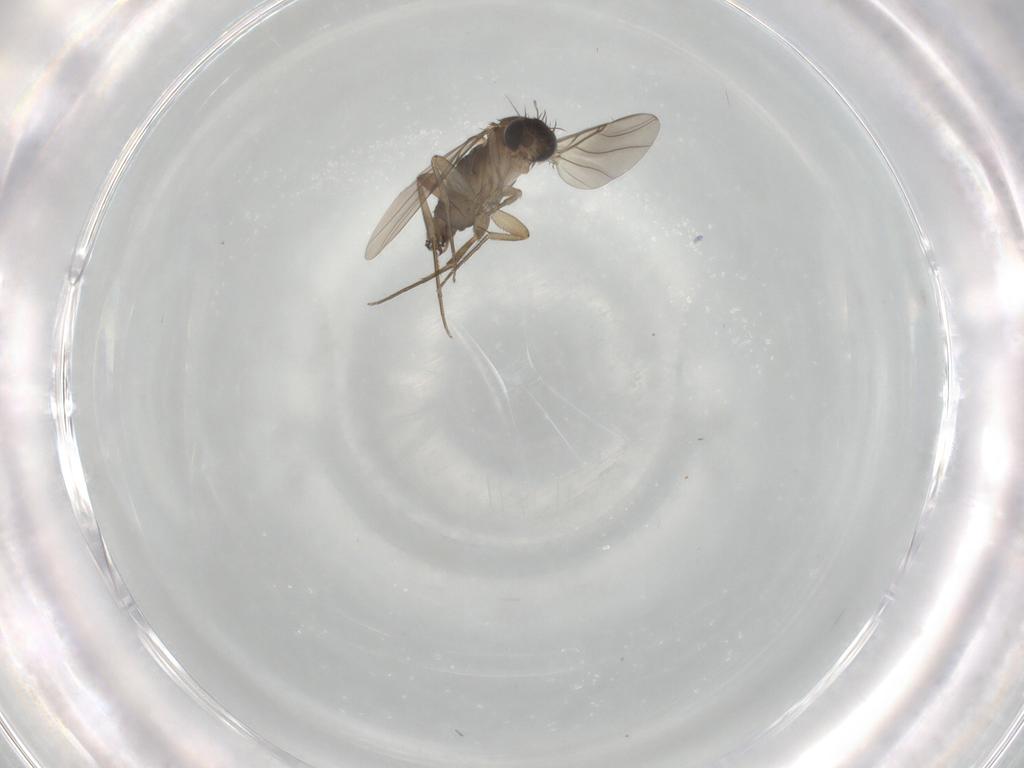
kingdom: Animalia
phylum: Arthropoda
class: Insecta
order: Diptera
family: Phoridae
